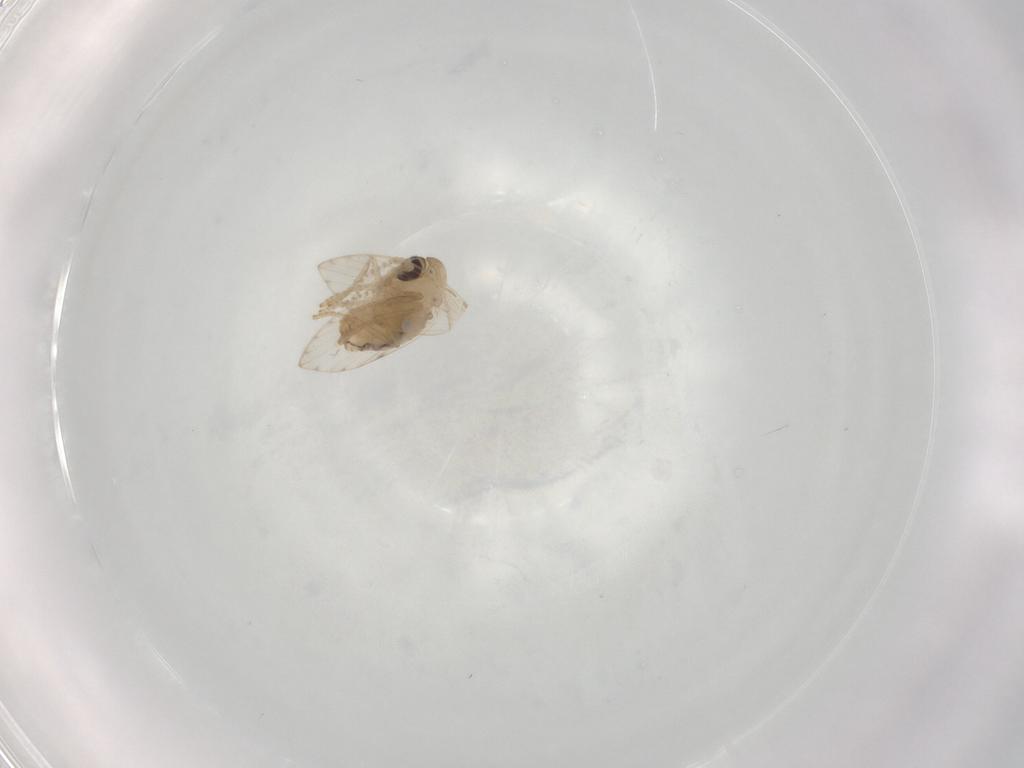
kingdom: Animalia
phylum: Arthropoda
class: Insecta
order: Diptera
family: Psychodidae
